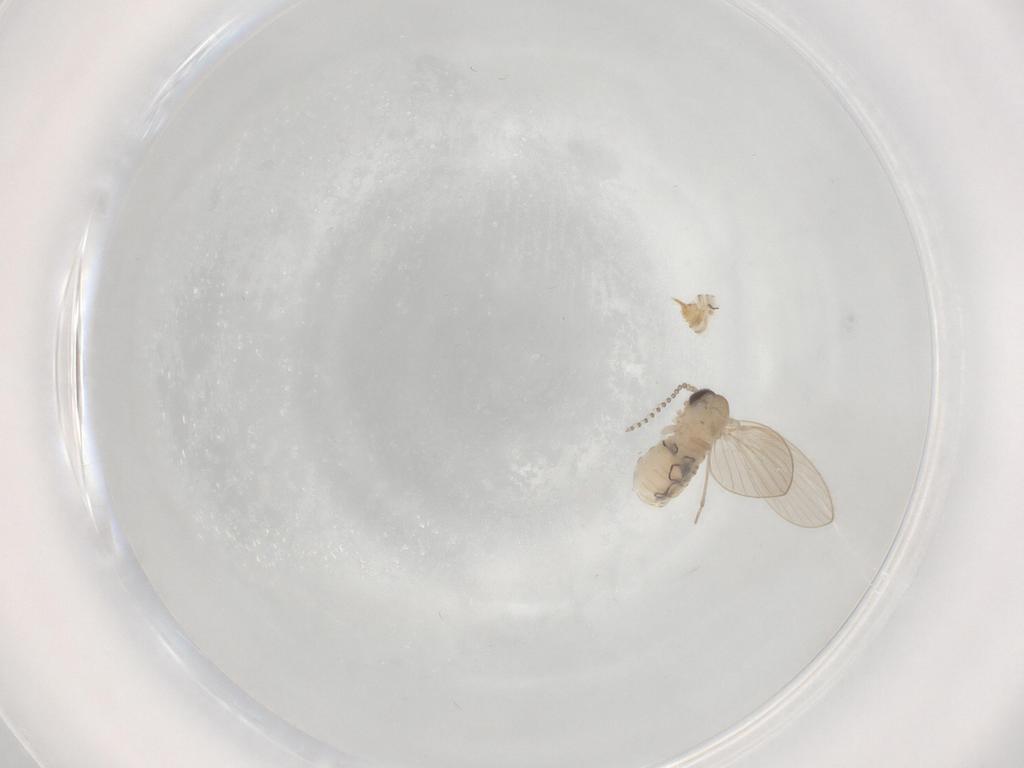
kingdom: Animalia
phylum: Arthropoda
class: Insecta
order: Diptera
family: Psychodidae
